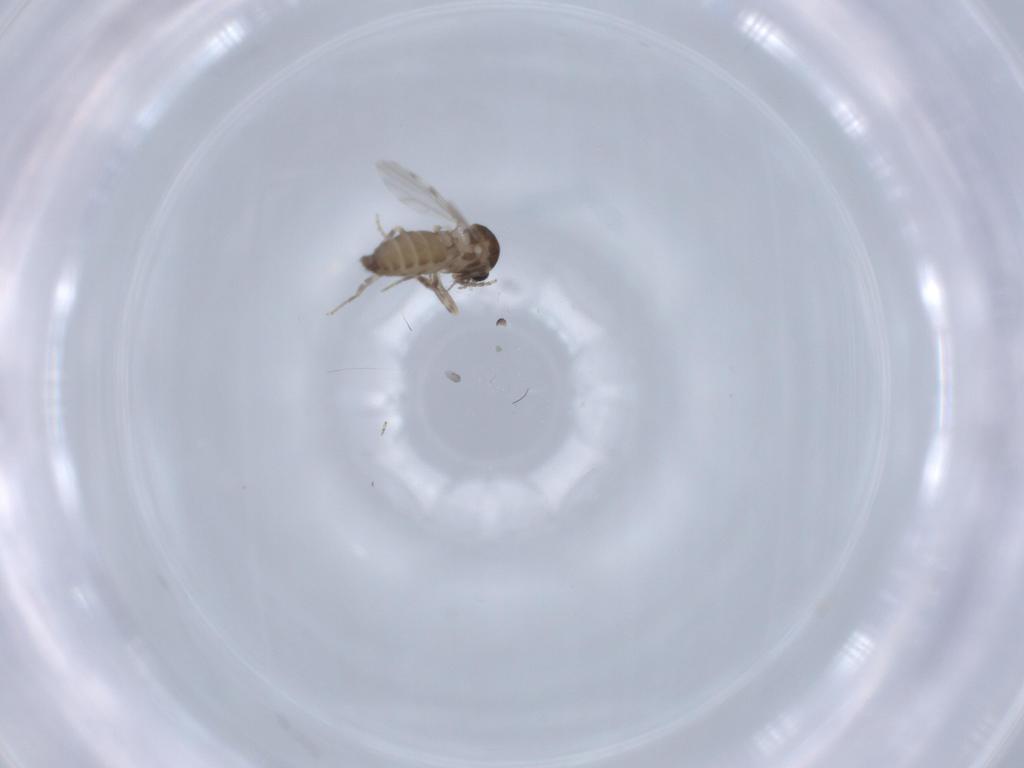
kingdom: Animalia
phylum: Arthropoda
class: Insecta
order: Diptera
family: Ceratopogonidae
